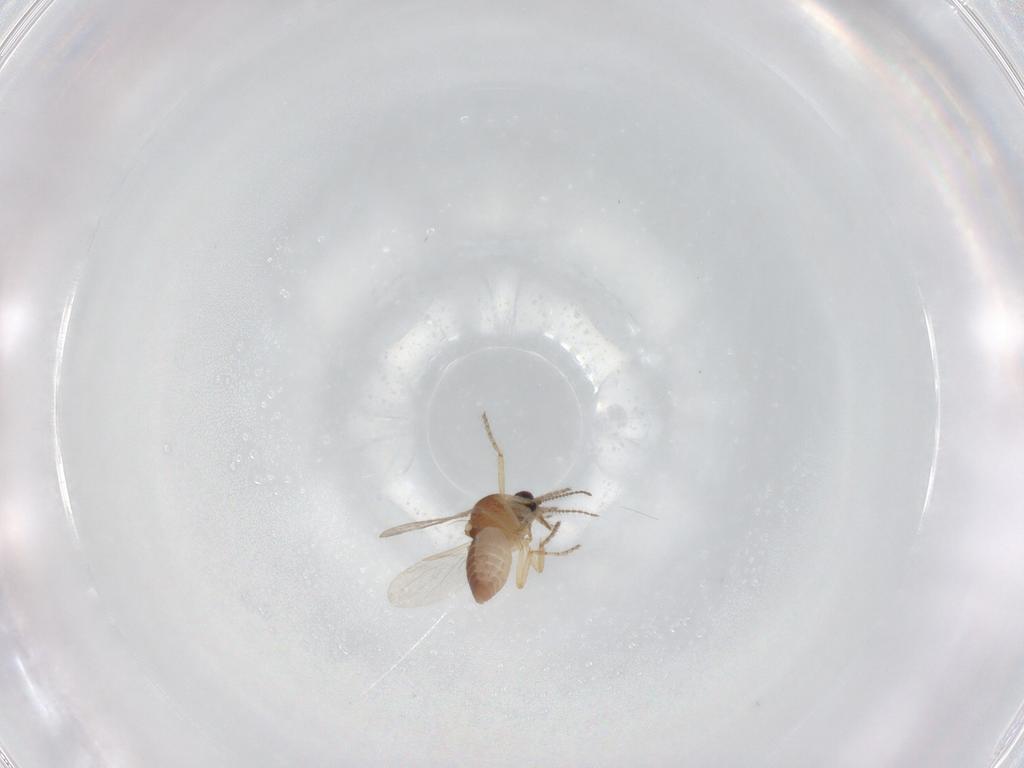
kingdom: Animalia
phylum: Arthropoda
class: Insecta
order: Diptera
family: Ceratopogonidae
